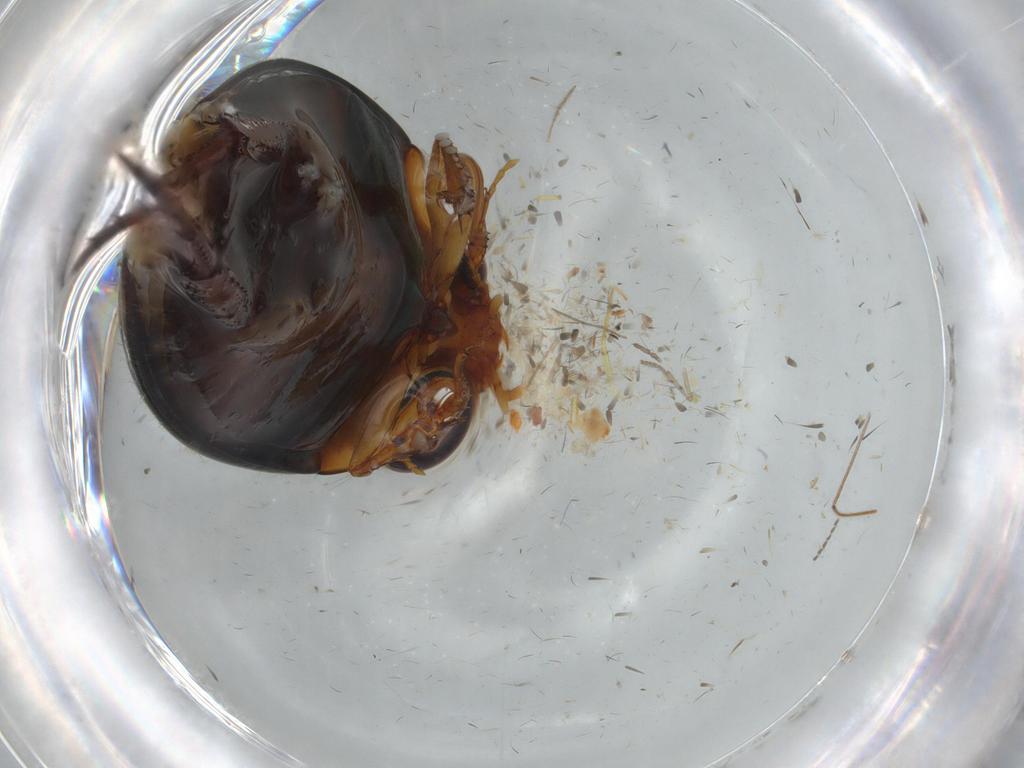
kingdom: Animalia
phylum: Arthropoda
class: Insecta
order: Coleoptera
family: Dytiscidae
